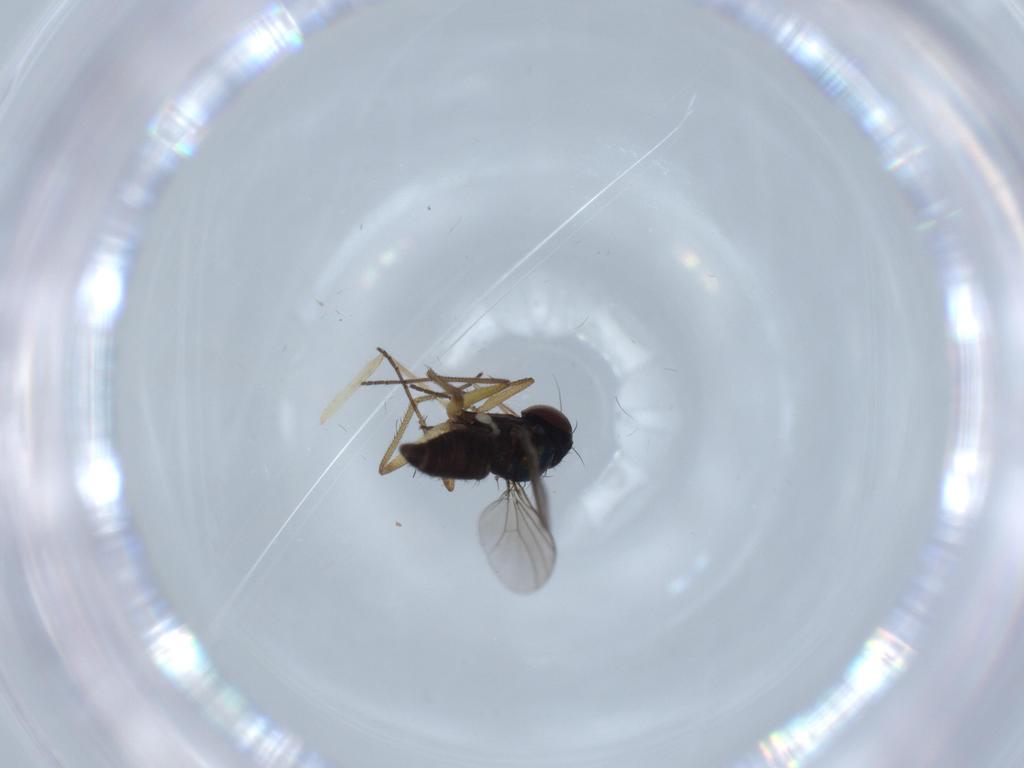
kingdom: Animalia
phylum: Arthropoda
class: Insecta
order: Diptera
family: Dolichopodidae
